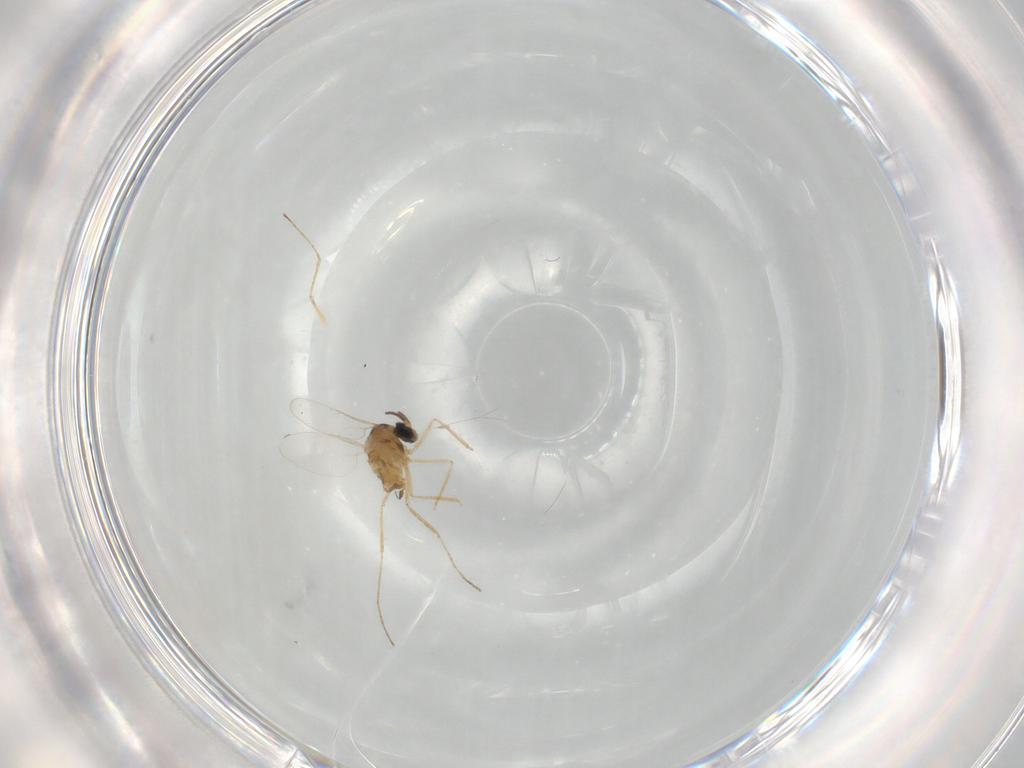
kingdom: Animalia
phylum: Arthropoda
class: Insecta
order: Diptera
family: Cecidomyiidae
